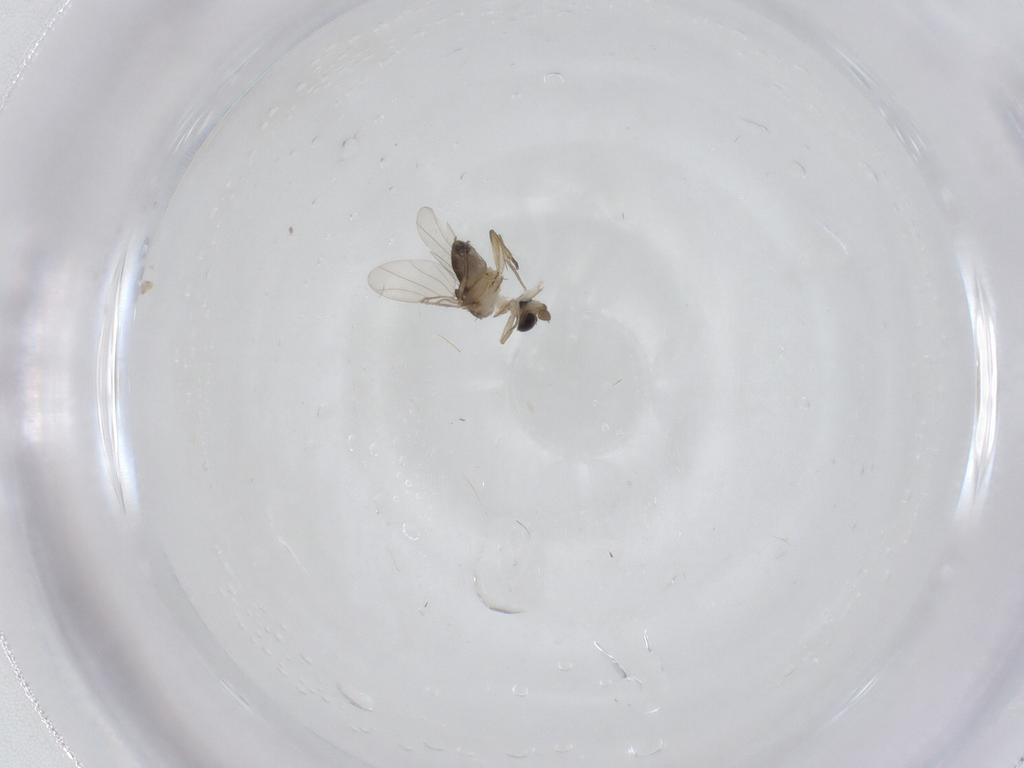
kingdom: Animalia
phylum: Arthropoda
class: Insecta
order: Diptera
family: Phoridae
